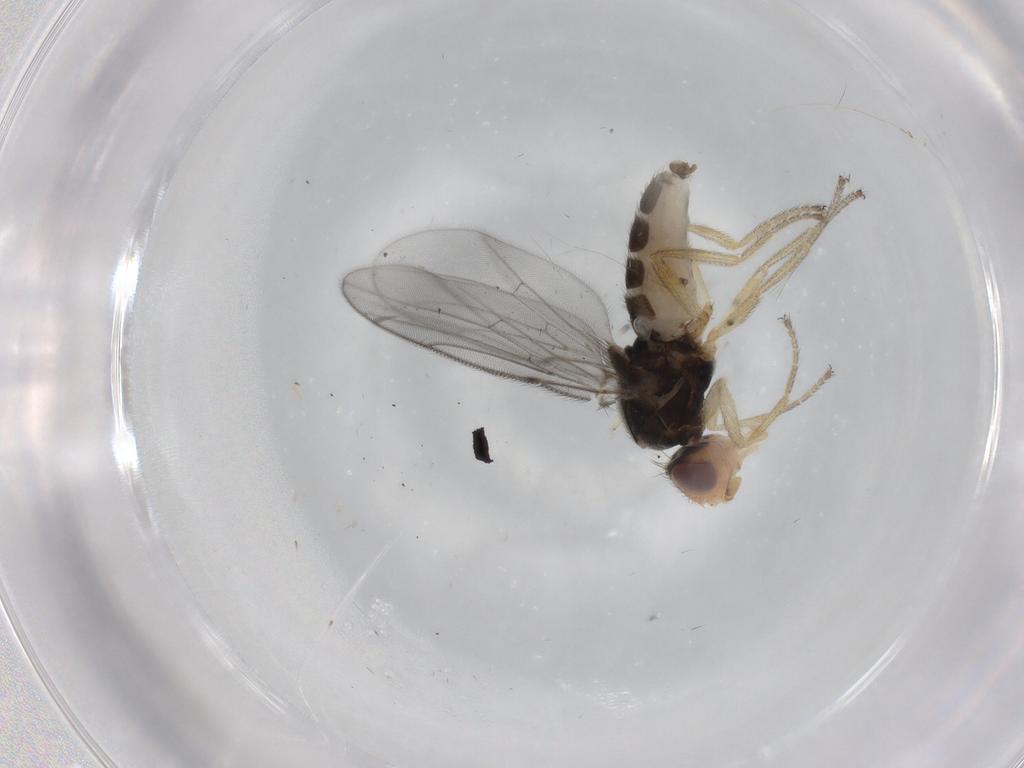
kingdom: Animalia
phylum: Arthropoda
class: Insecta
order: Diptera
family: Chloropidae
